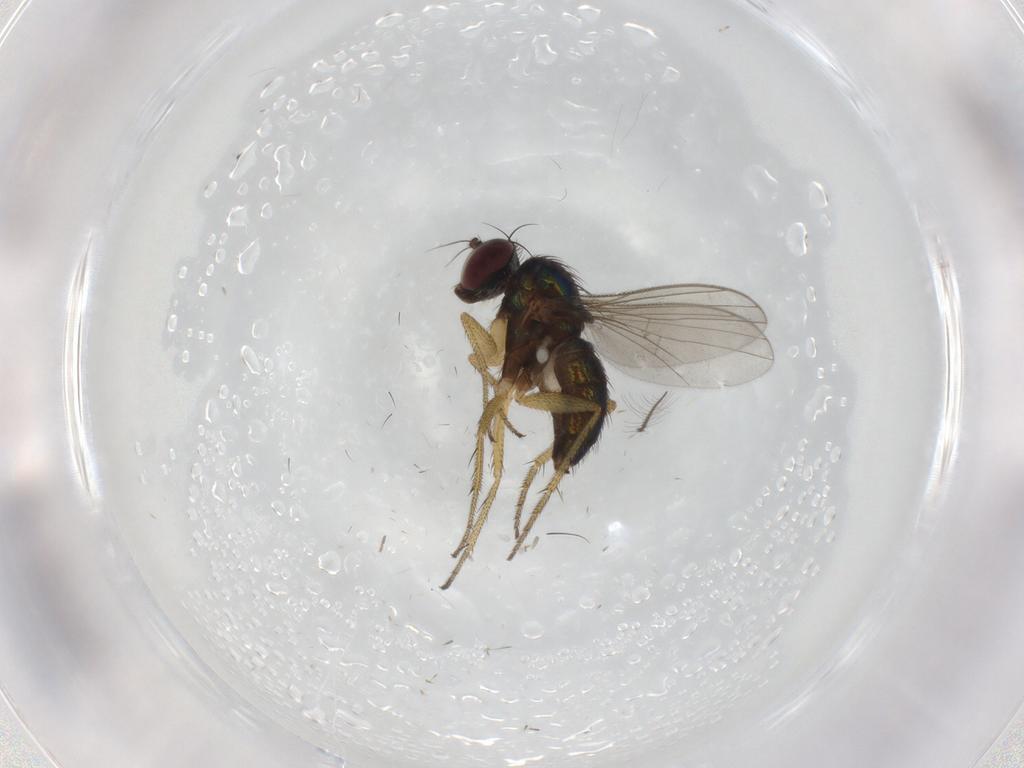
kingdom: Animalia
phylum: Arthropoda
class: Insecta
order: Diptera
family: Dolichopodidae
